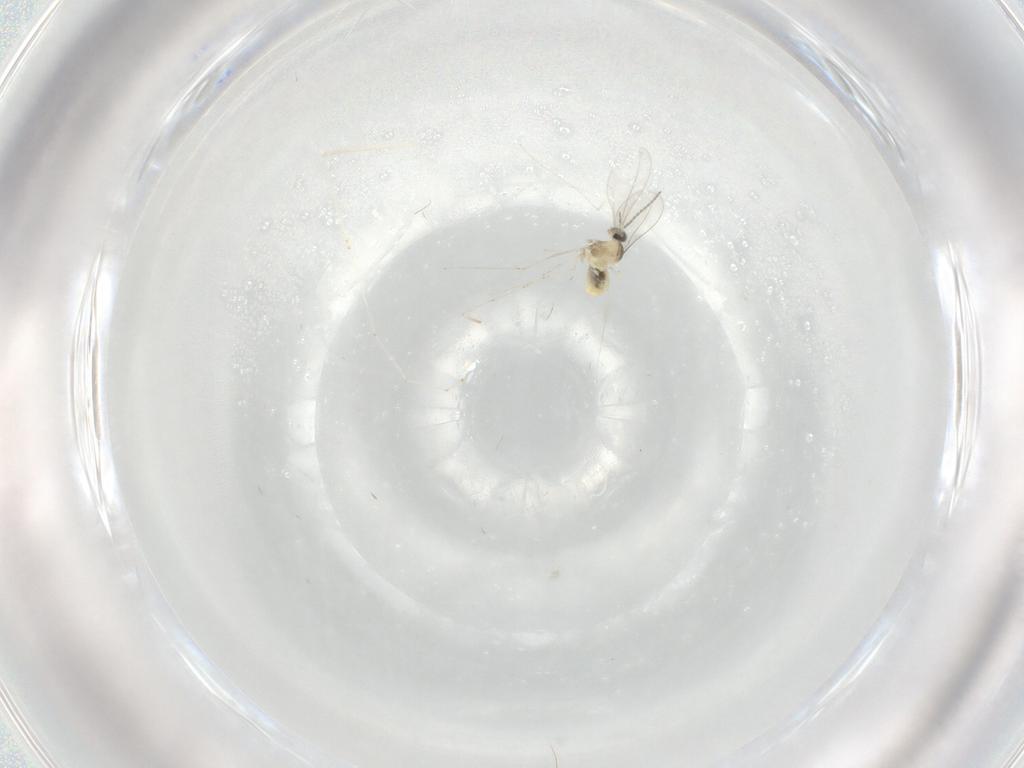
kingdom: Animalia
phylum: Arthropoda
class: Insecta
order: Diptera
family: Cecidomyiidae
